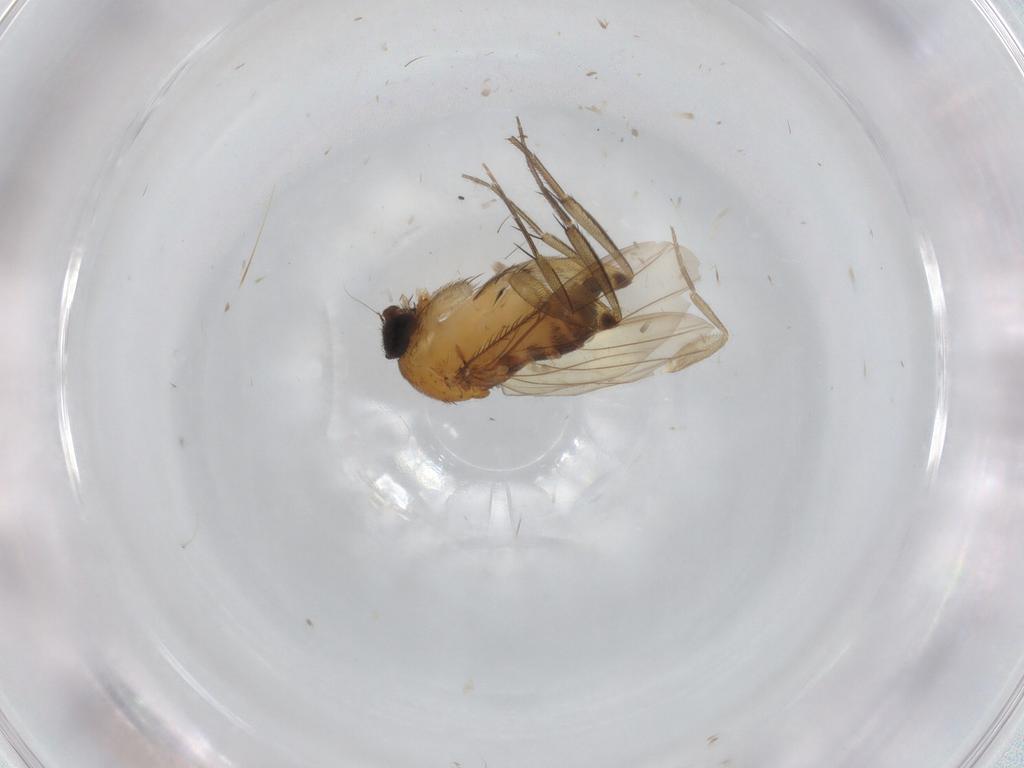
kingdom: Animalia
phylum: Arthropoda
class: Insecta
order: Diptera
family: Phoridae
